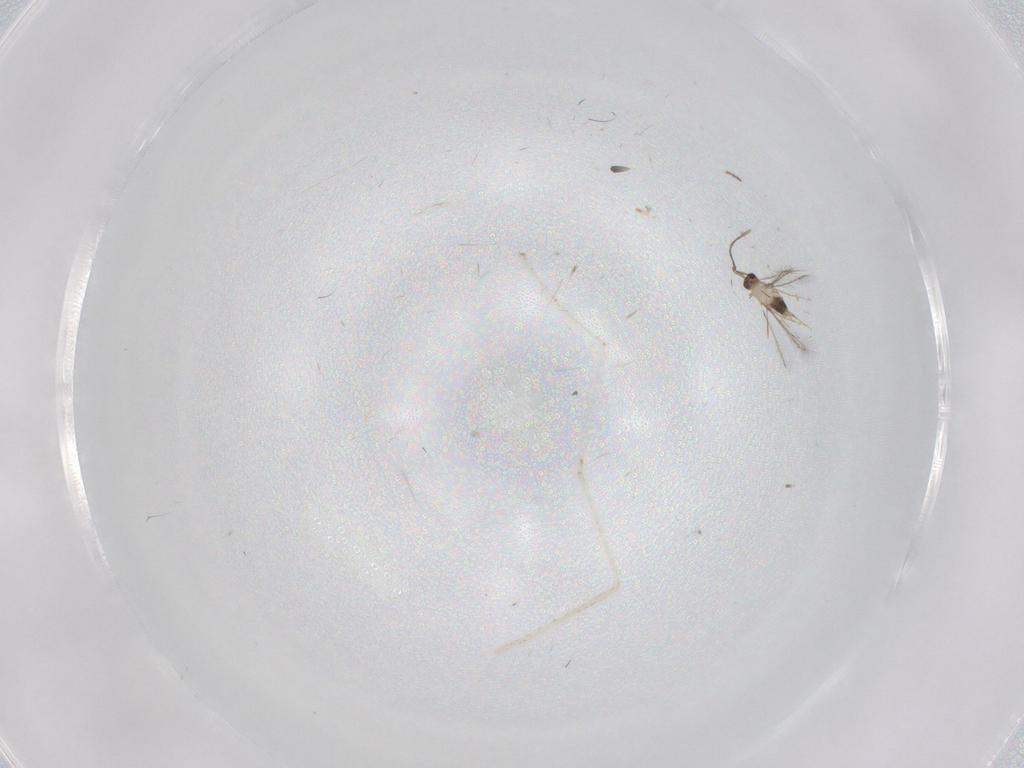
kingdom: Animalia
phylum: Arthropoda
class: Insecta
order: Hymenoptera
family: Mymaridae
